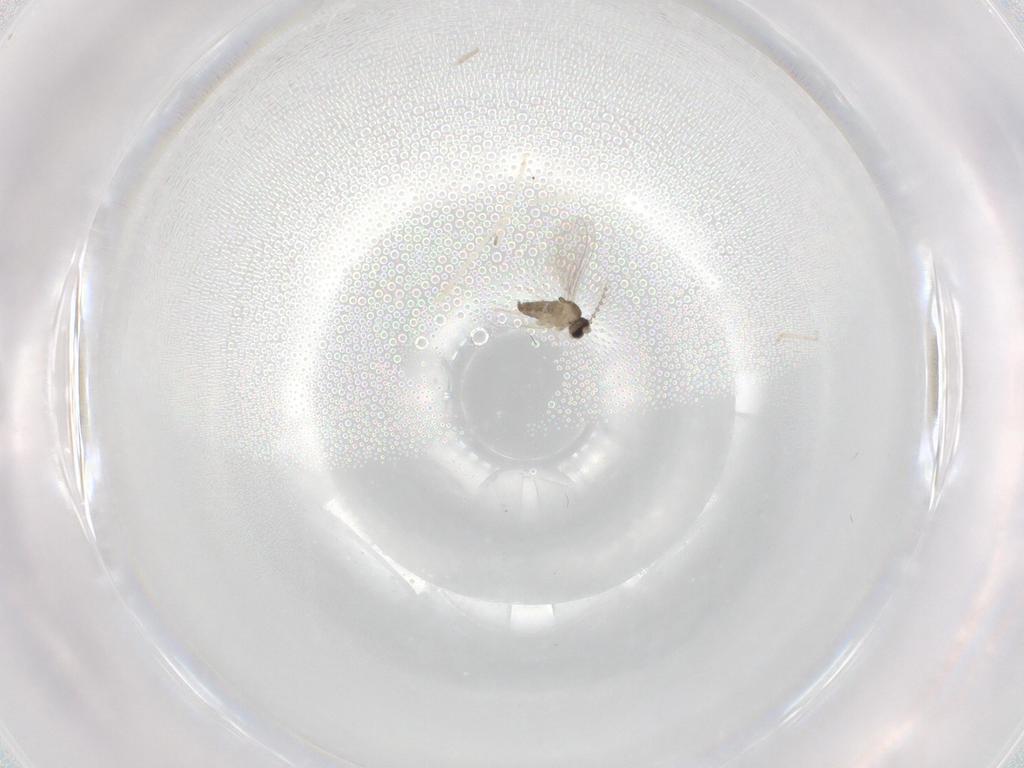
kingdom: Animalia
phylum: Arthropoda
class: Insecta
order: Diptera
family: Cecidomyiidae
